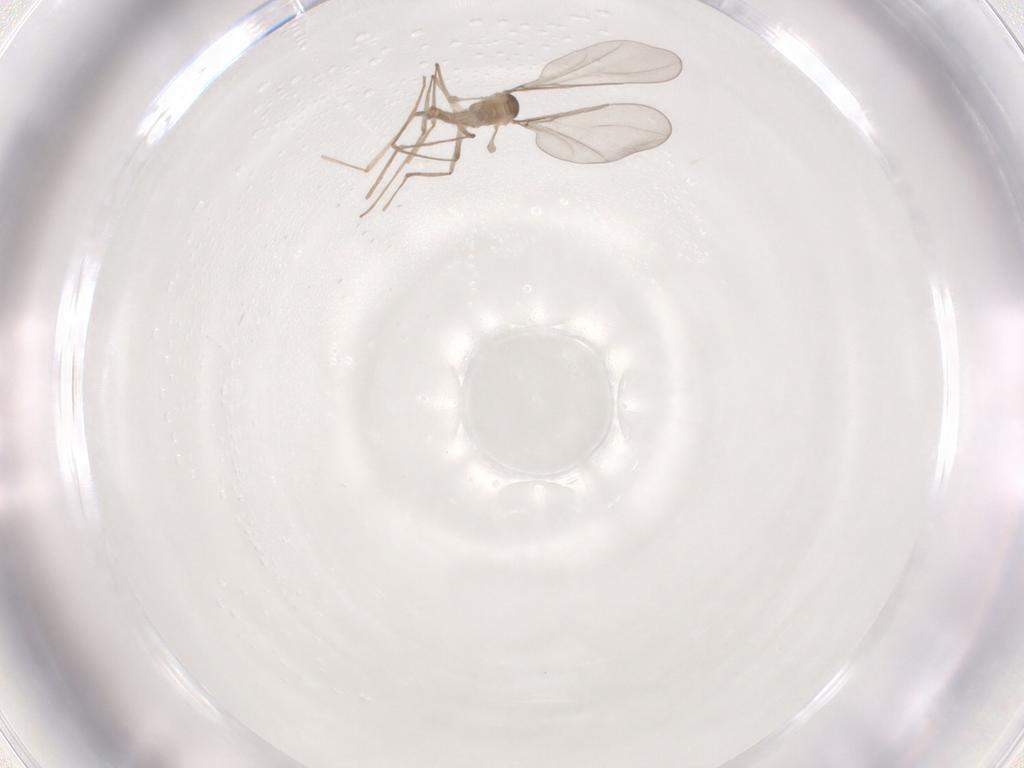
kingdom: Animalia
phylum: Arthropoda
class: Insecta
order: Diptera
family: Cecidomyiidae
